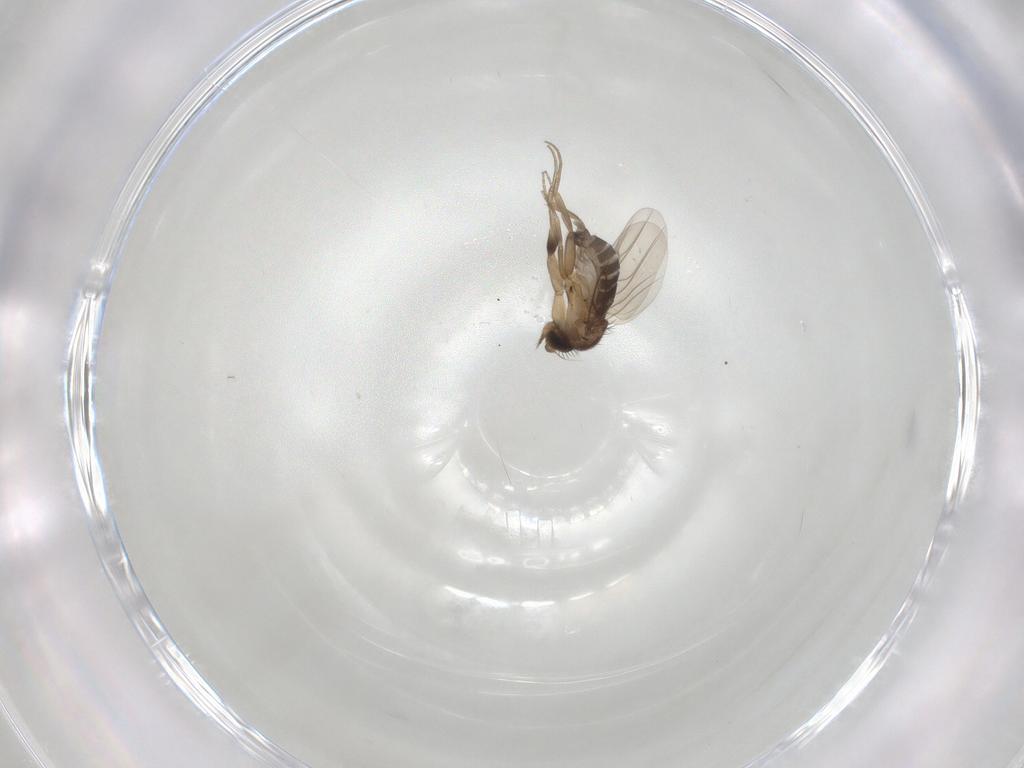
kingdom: Animalia
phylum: Arthropoda
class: Insecta
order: Diptera
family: Phoridae
